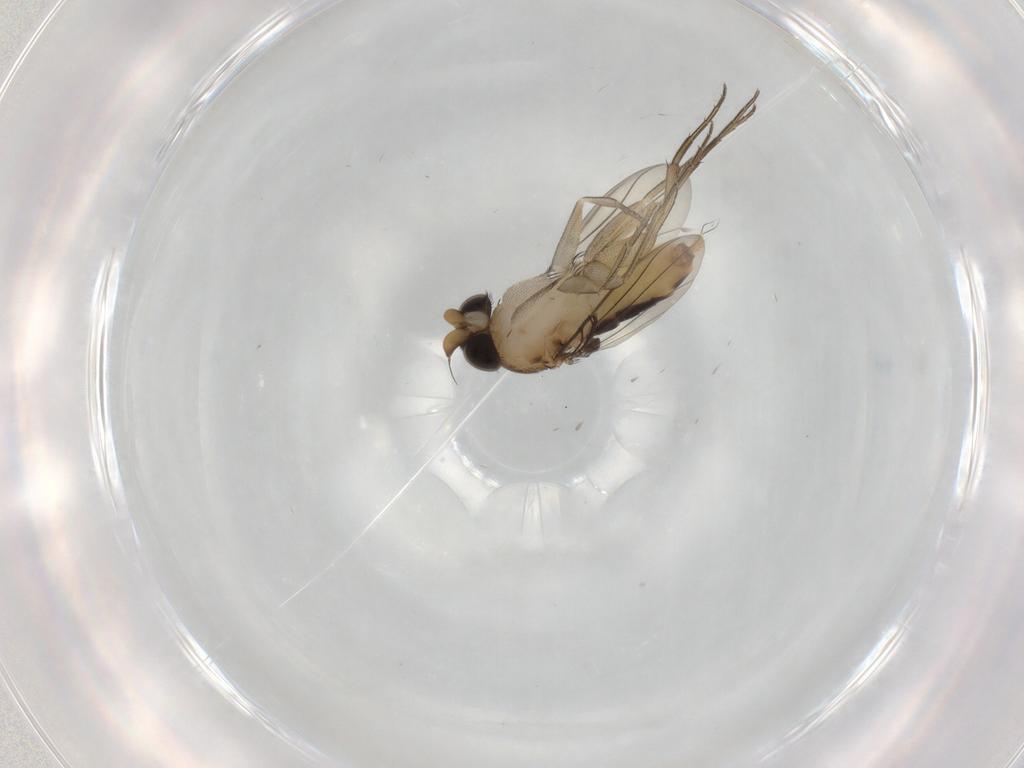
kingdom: Animalia
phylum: Arthropoda
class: Insecta
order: Diptera
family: Phoridae
